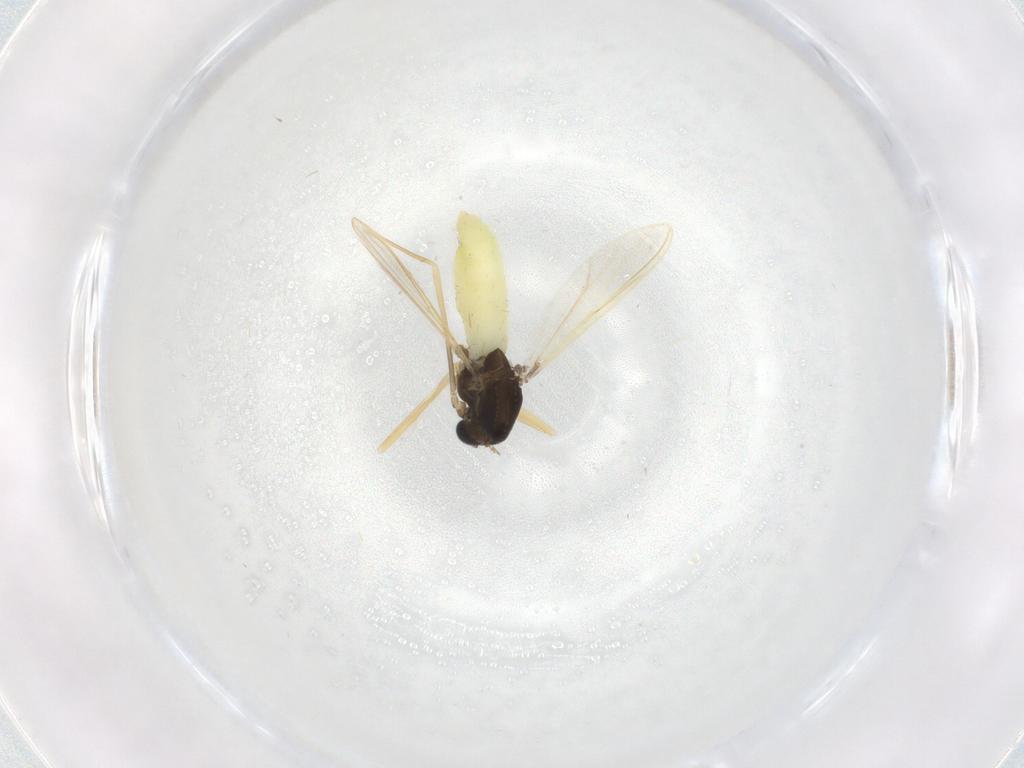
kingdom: Animalia
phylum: Arthropoda
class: Insecta
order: Diptera
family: Chironomidae
